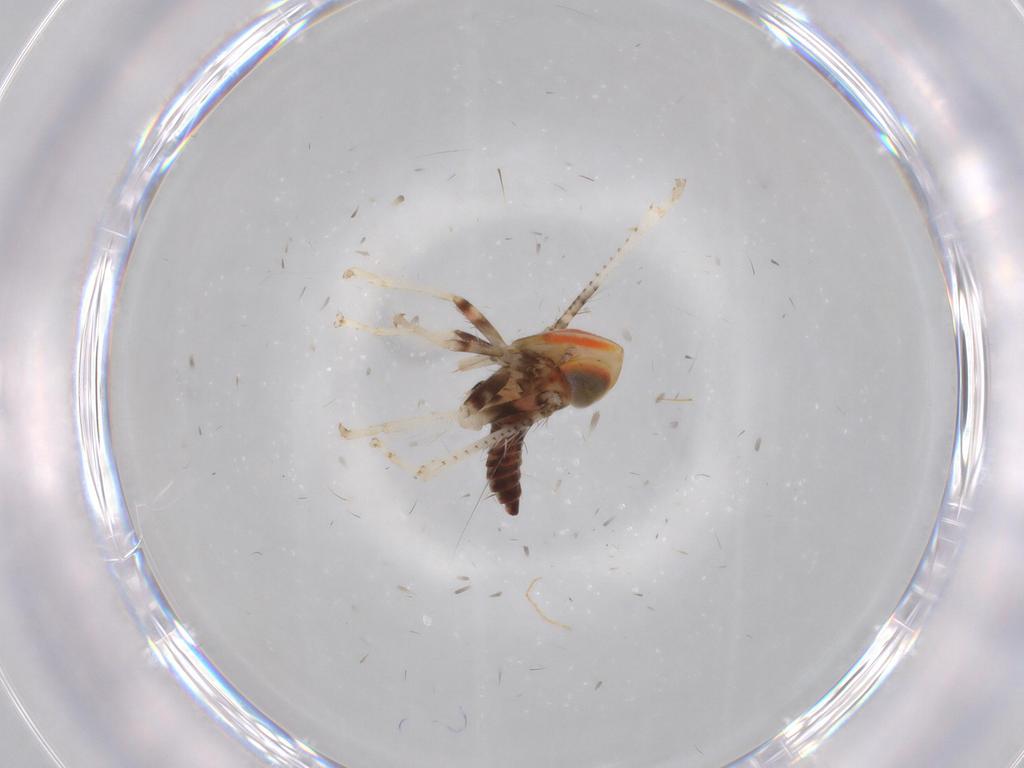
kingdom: Animalia
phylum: Arthropoda
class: Insecta
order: Hemiptera
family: Cicadellidae
